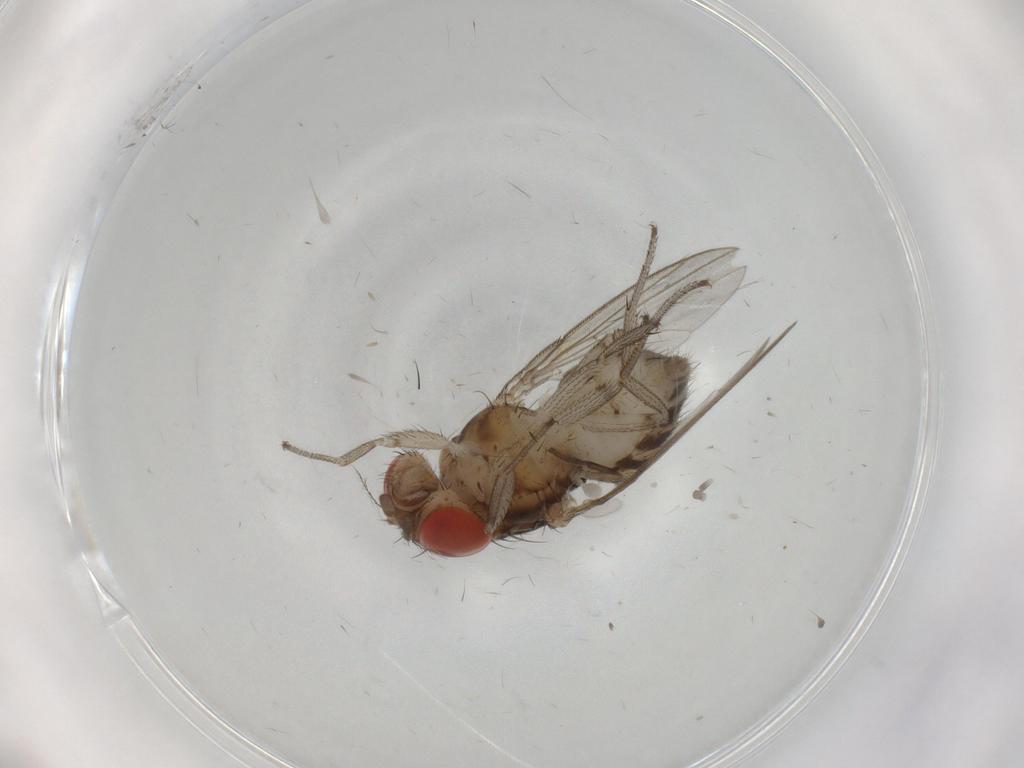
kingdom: Animalia
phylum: Arthropoda
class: Insecta
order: Diptera
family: Drosophilidae
